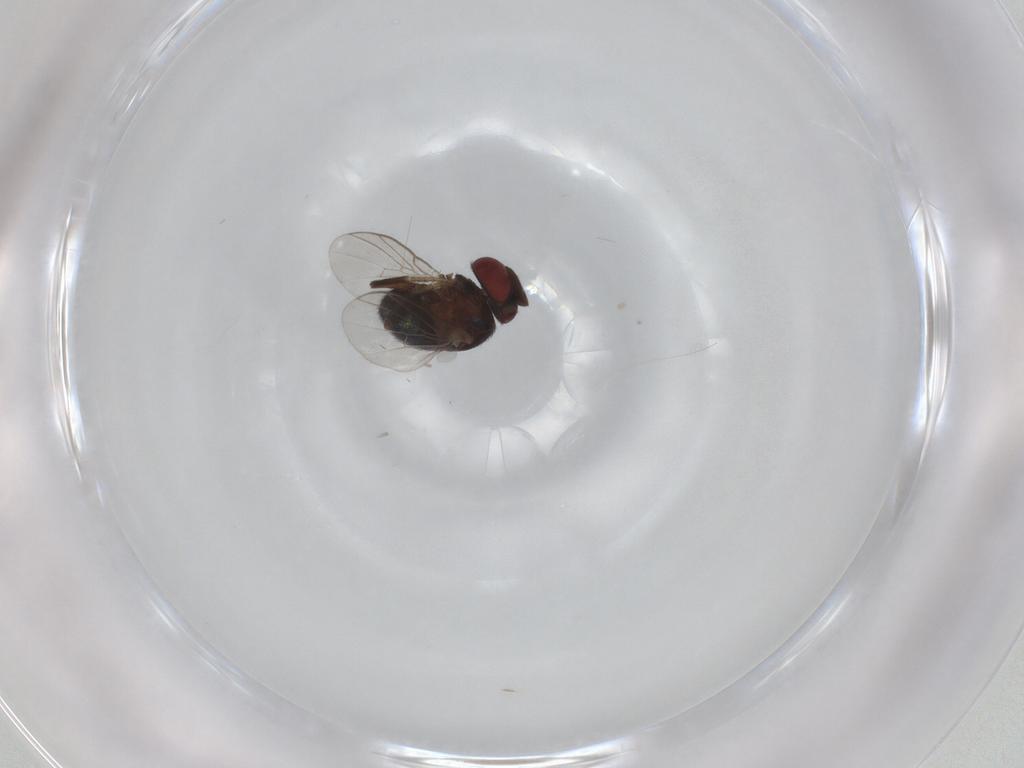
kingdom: Animalia
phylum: Arthropoda
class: Insecta
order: Diptera
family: Cryptochetidae
